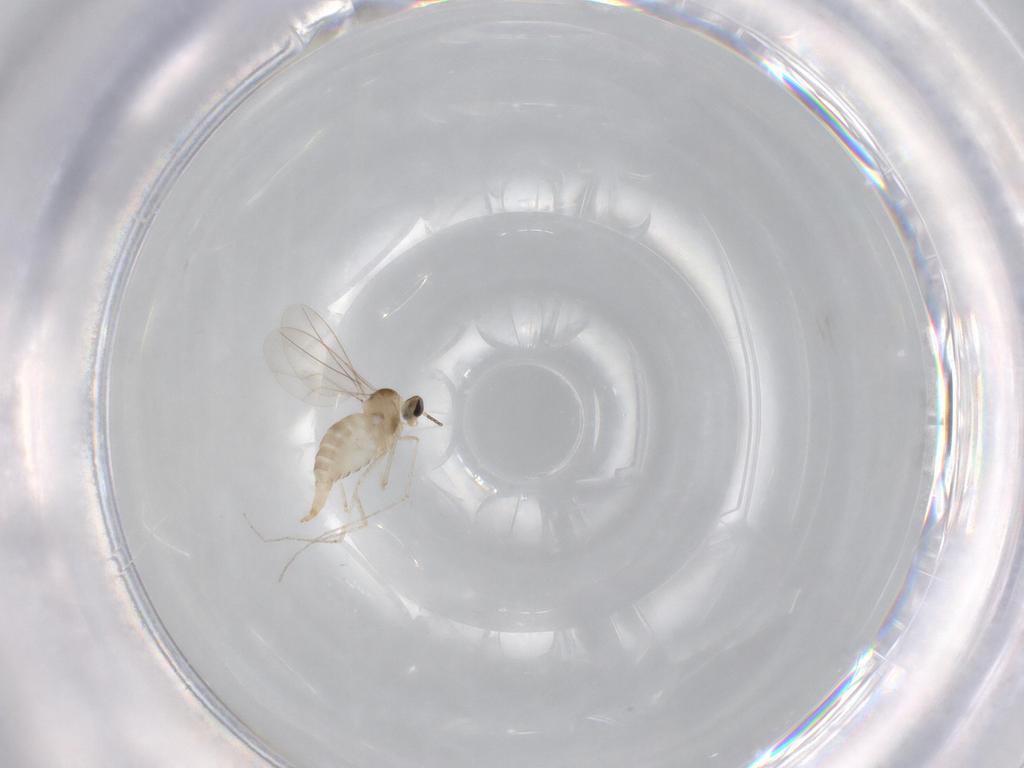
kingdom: Animalia
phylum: Arthropoda
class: Insecta
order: Diptera
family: Cecidomyiidae
